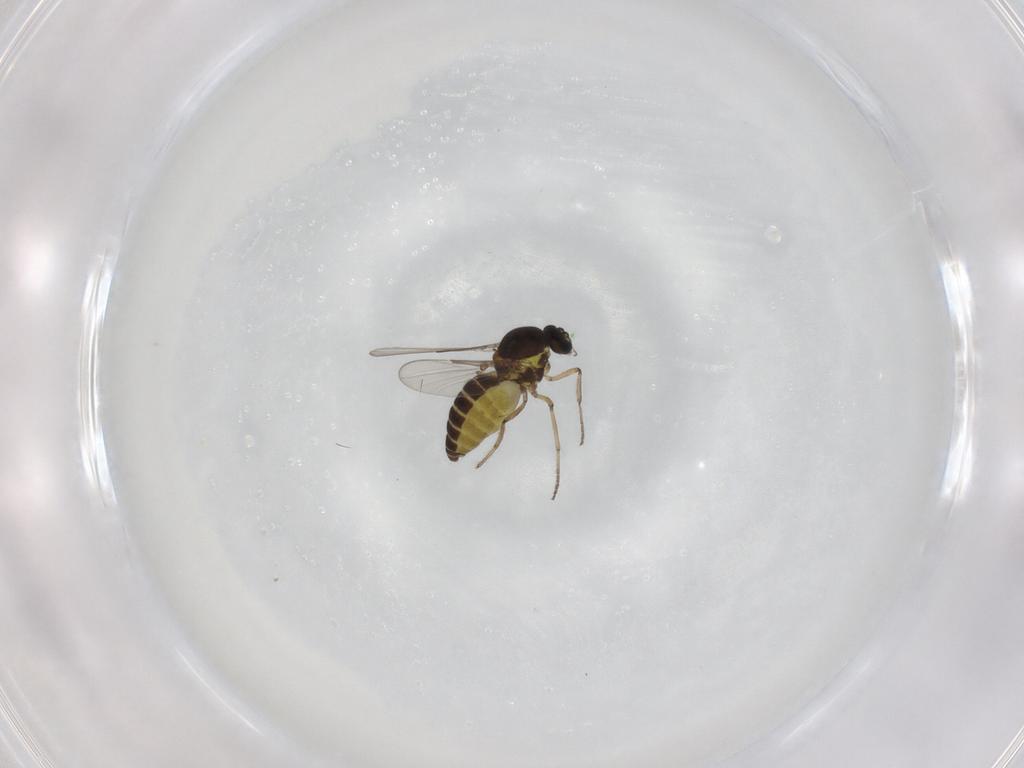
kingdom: Animalia
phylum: Arthropoda
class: Insecta
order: Diptera
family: Ceratopogonidae
